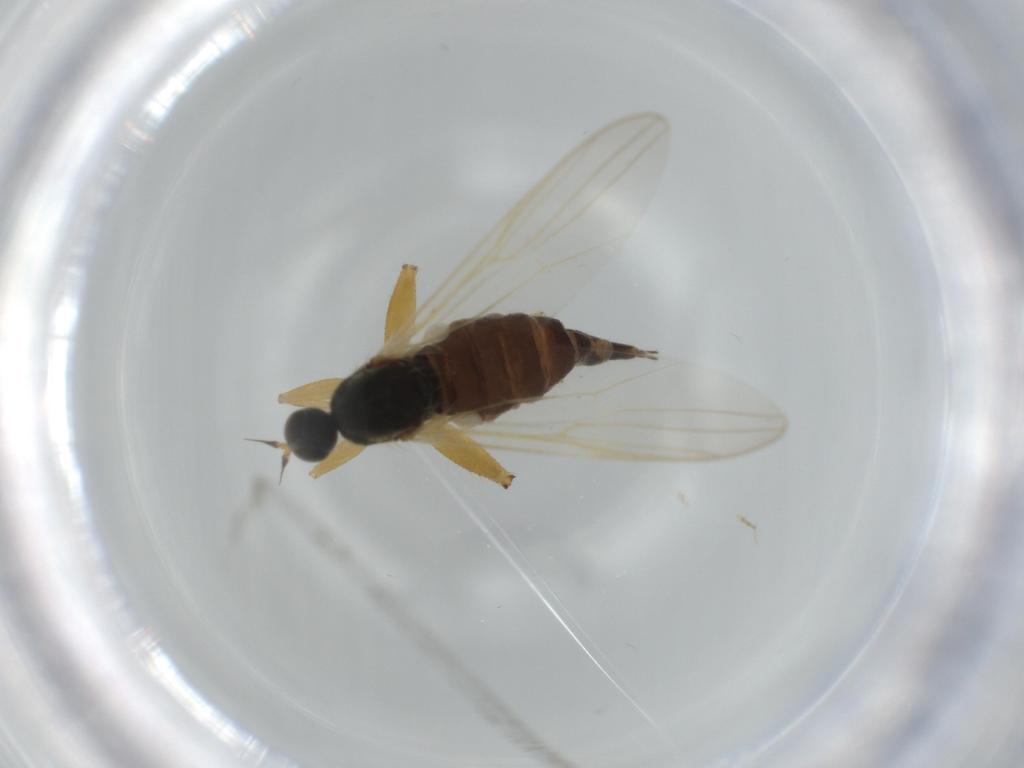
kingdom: Animalia
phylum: Arthropoda
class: Insecta
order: Diptera
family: Hybotidae
